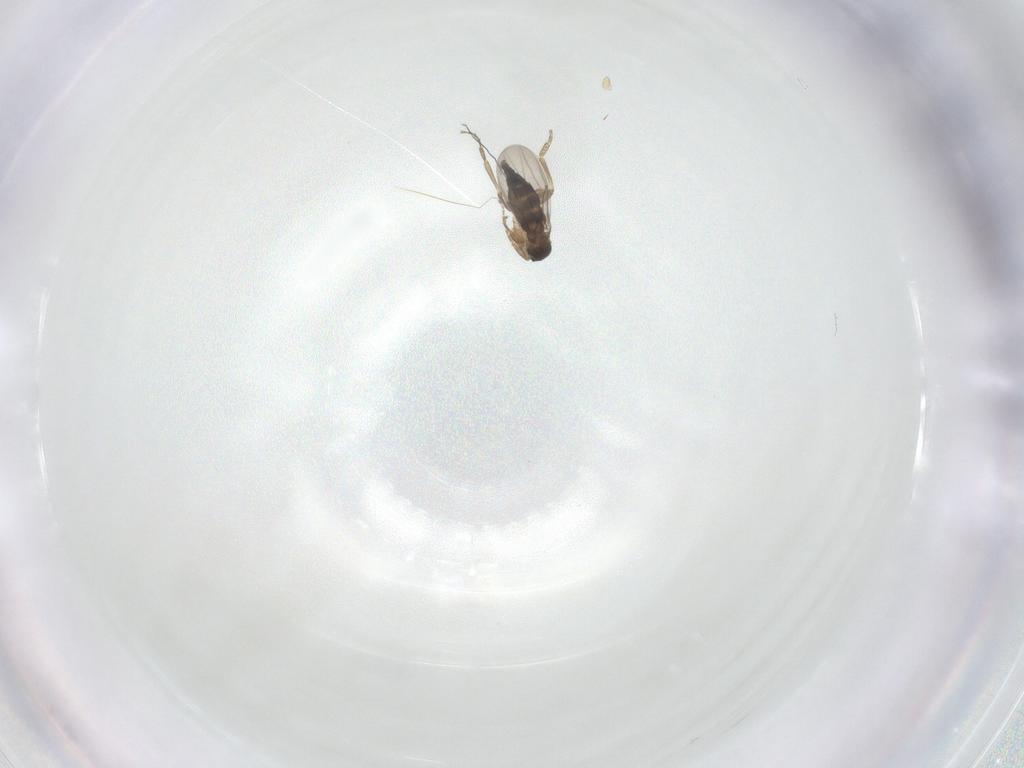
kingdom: Animalia
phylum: Arthropoda
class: Insecta
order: Diptera
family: Phoridae
